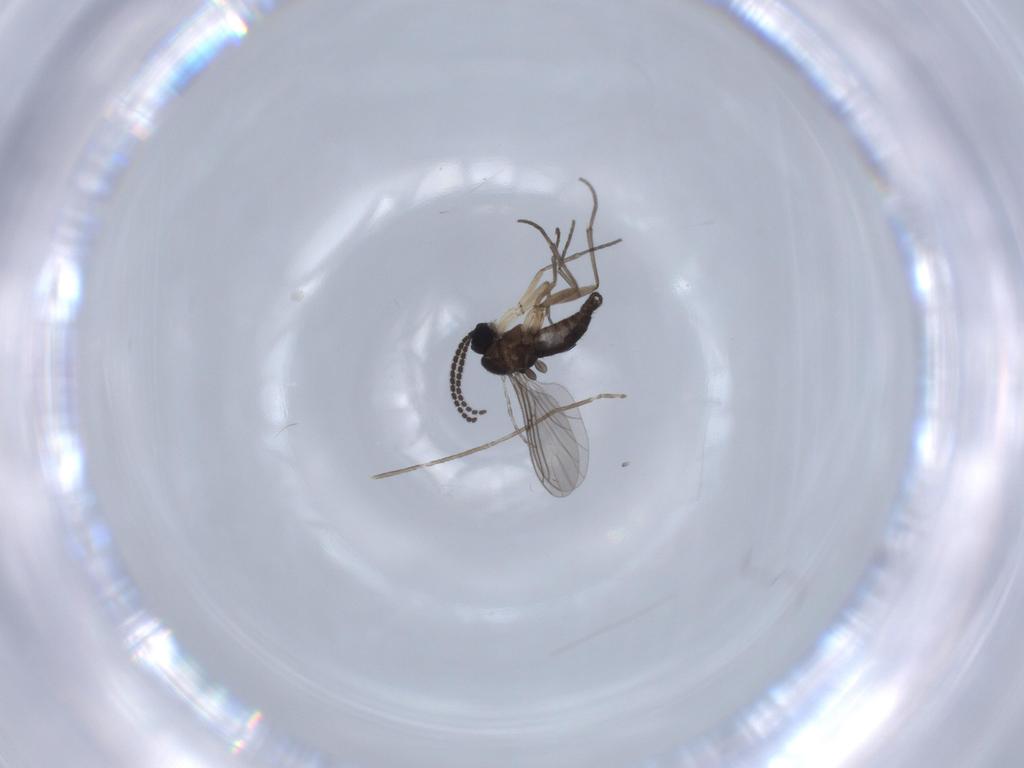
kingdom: Animalia
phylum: Arthropoda
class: Insecta
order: Diptera
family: Sciaridae
